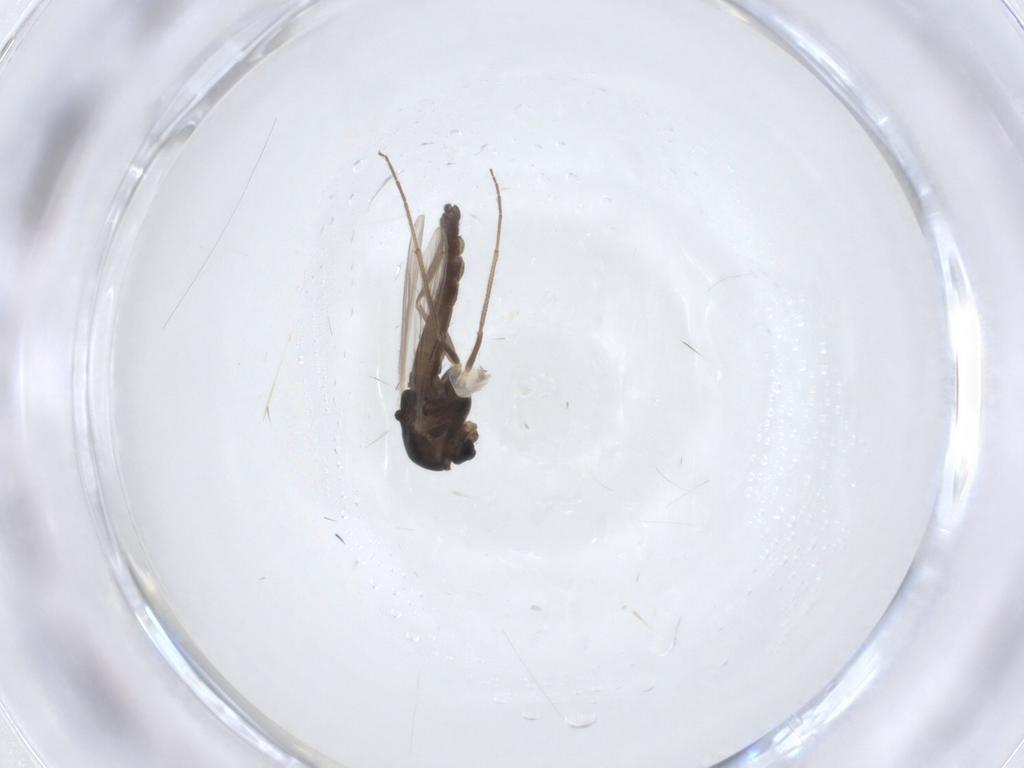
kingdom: Animalia
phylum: Arthropoda
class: Insecta
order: Diptera
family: Chironomidae
